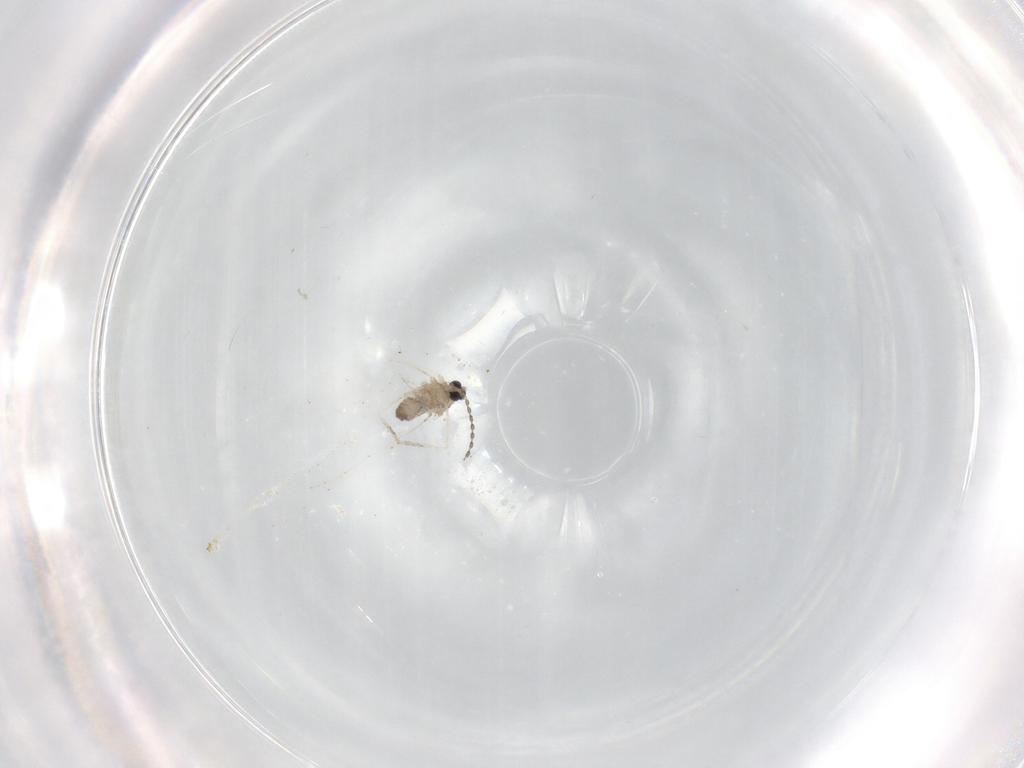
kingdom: Animalia
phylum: Arthropoda
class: Insecta
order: Diptera
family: Cecidomyiidae
